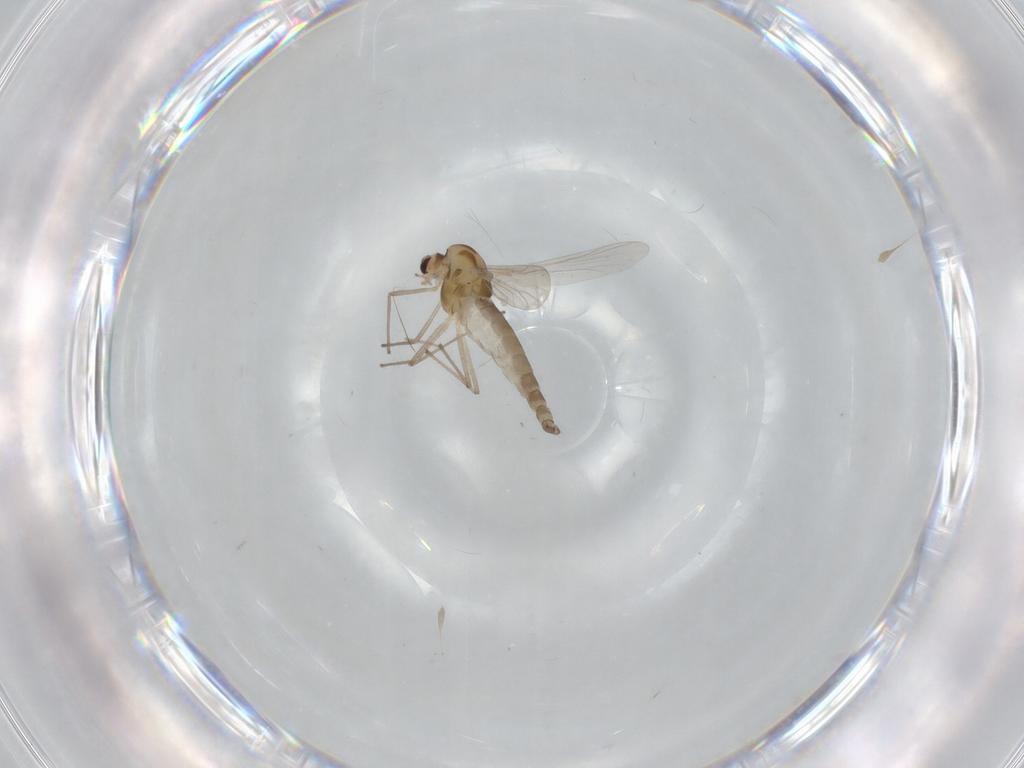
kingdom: Animalia
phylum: Arthropoda
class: Insecta
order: Diptera
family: Chironomidae
